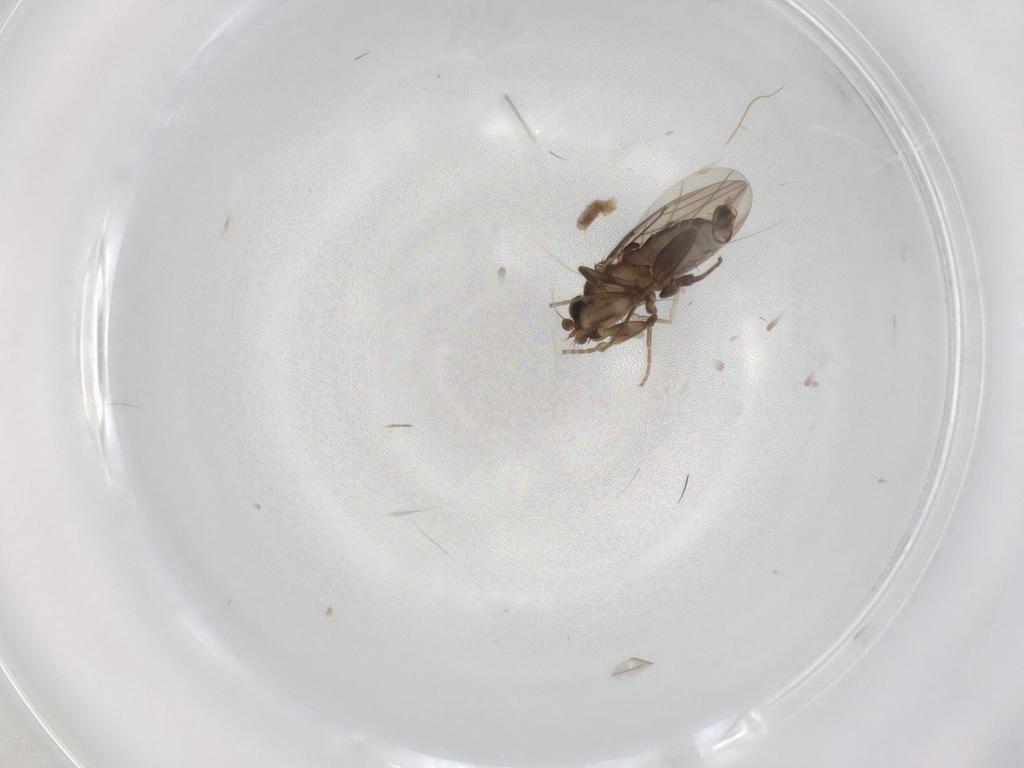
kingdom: Animalia
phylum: Arthropoda
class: Insecta
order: Diptera
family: Phoridae
